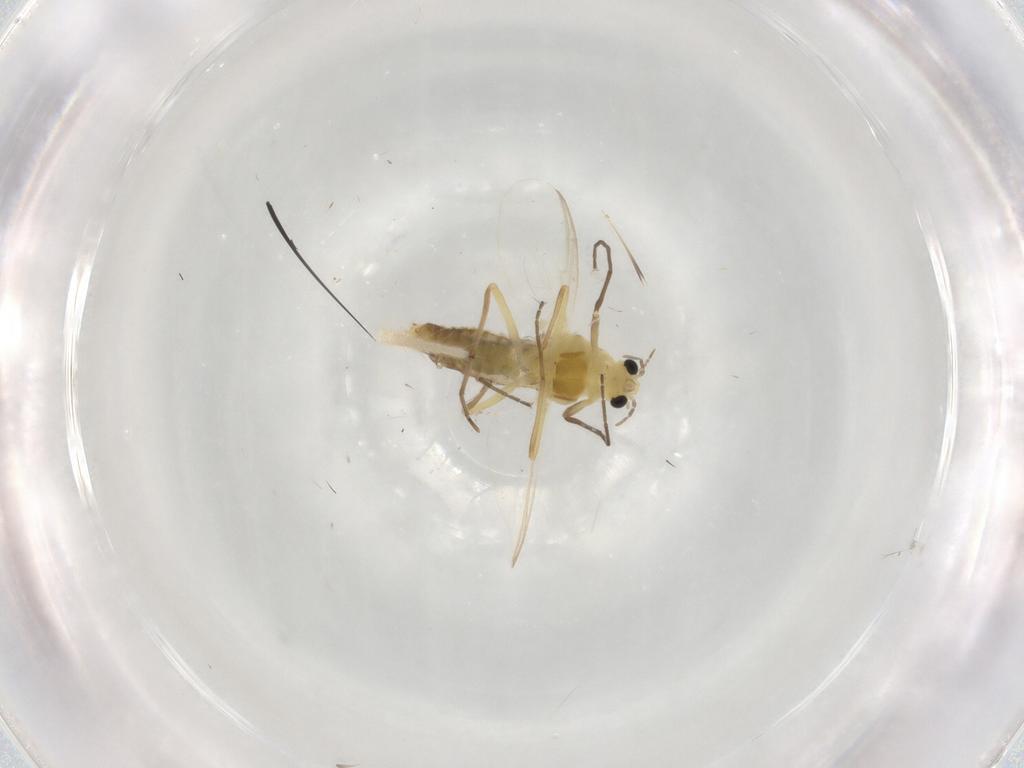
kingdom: Animalia
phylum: Arthropoda
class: Insecta
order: Diptera
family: Chironomidae
